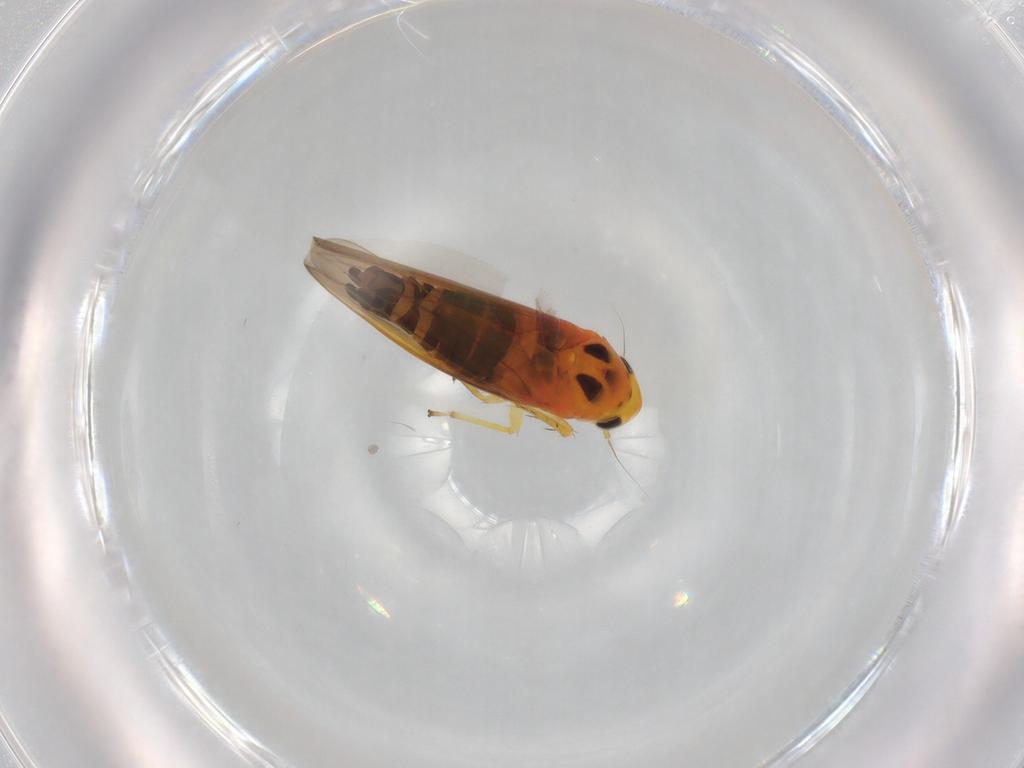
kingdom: Animalia
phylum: Arthropoda
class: Insecta
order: Hemiptera
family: Cicadellidae
